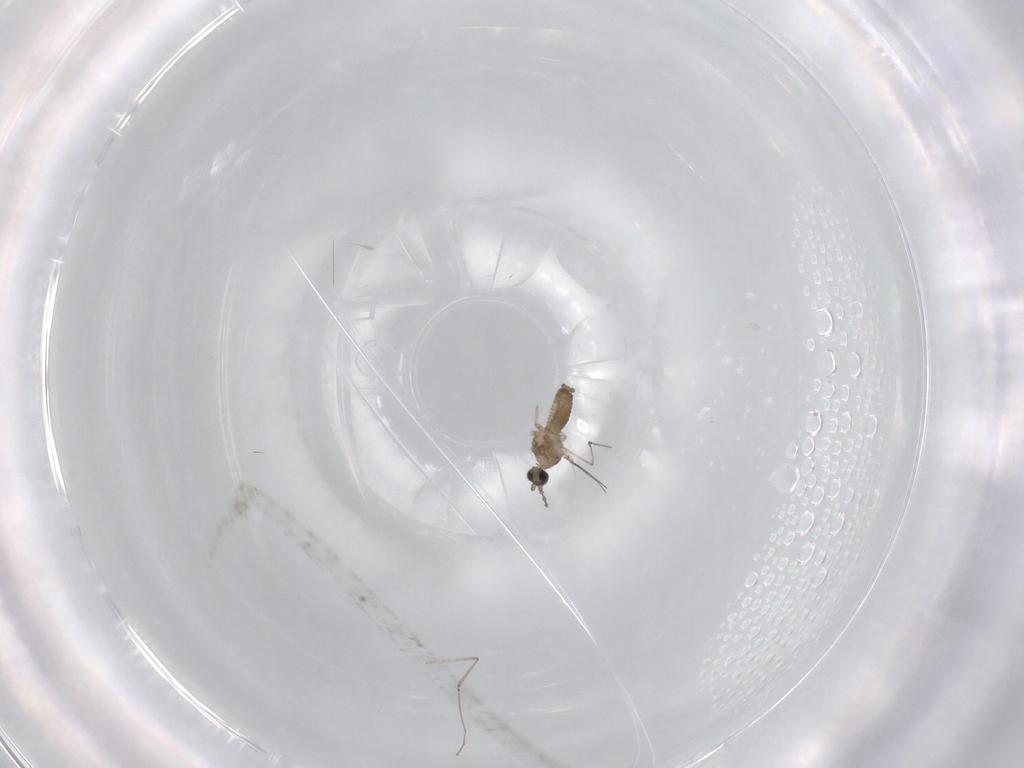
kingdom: Animalia
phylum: Arthropoda
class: Insecta
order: Diptera
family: Sciaridae
